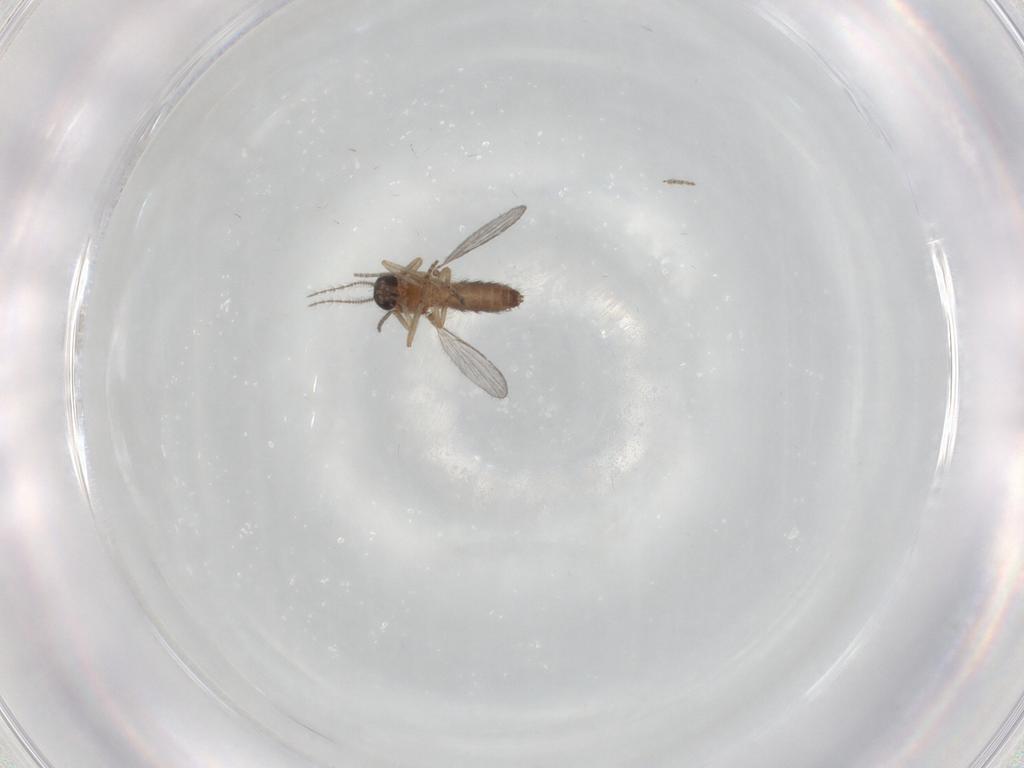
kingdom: Animalia
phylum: Arthropoda
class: Insecta
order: Diptera
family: Ceratopogonidae
